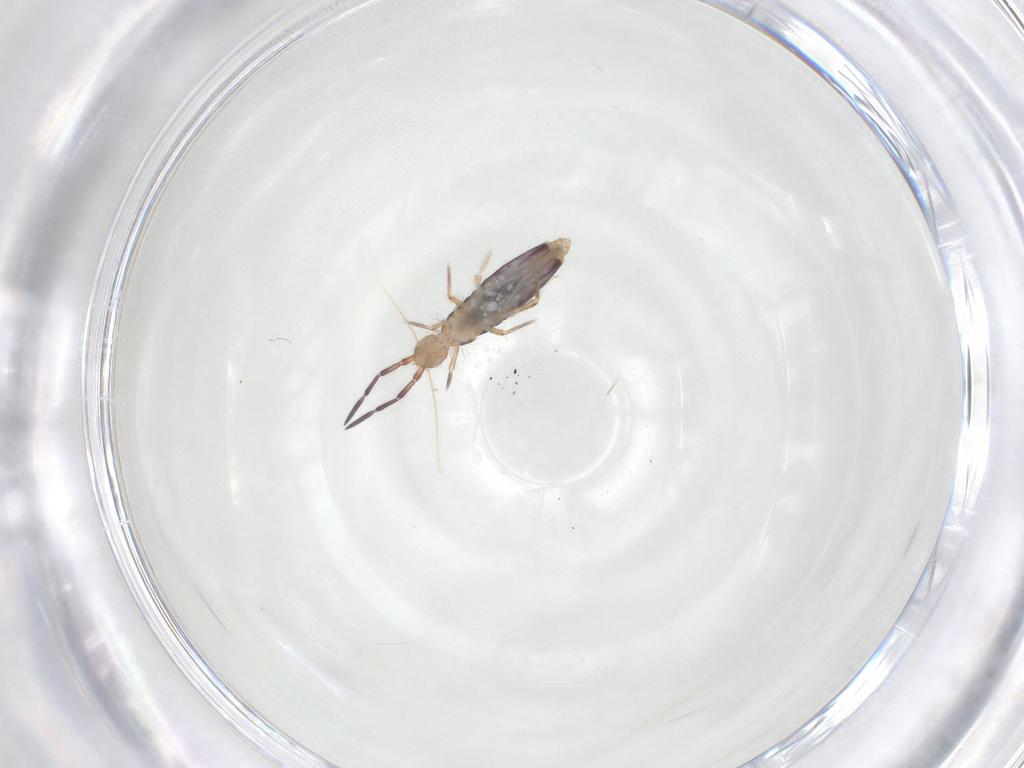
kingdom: Animalia
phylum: Arthropoda
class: Collembola
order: Entomobryomorpha
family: Entomobryidae
